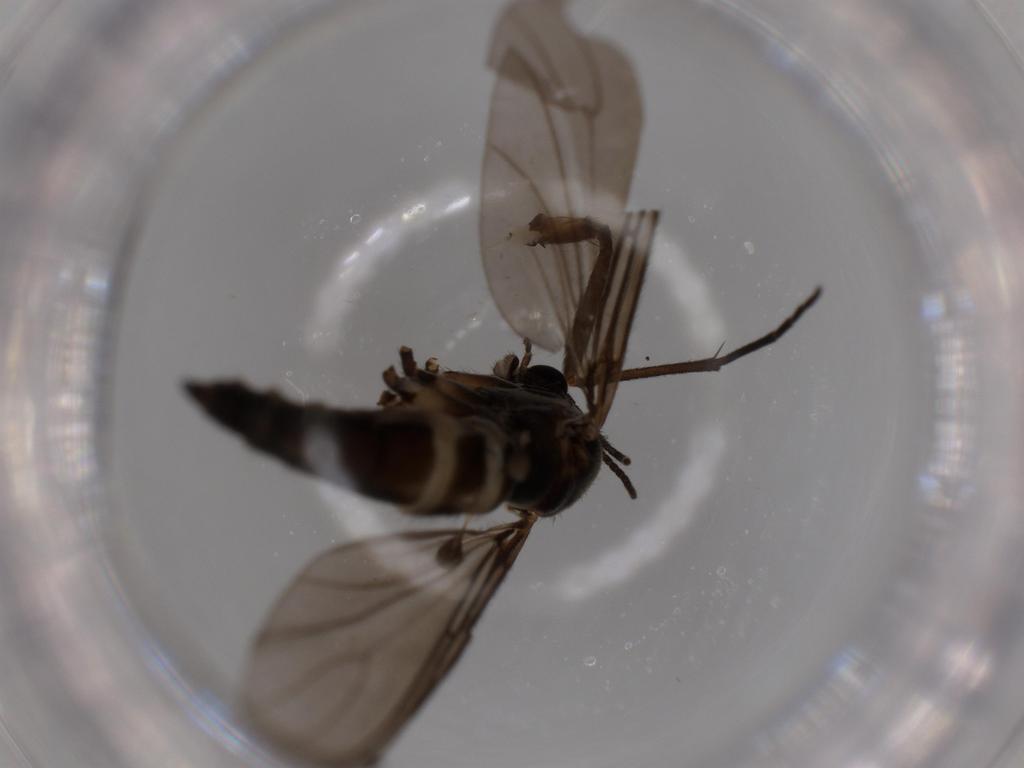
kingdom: Animalia
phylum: Arthropoda
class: Insecta
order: Diptera
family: Sciaridae
